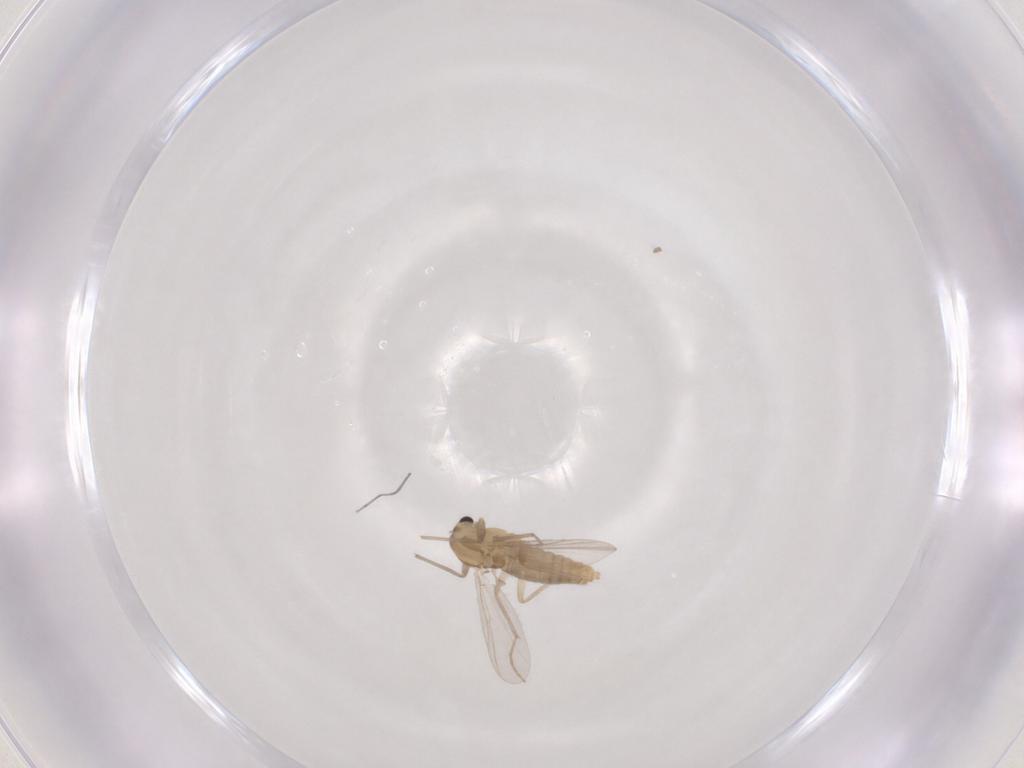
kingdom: Animalia
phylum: Arthropoda
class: Insecta
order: Diptera
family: Chironomidae
